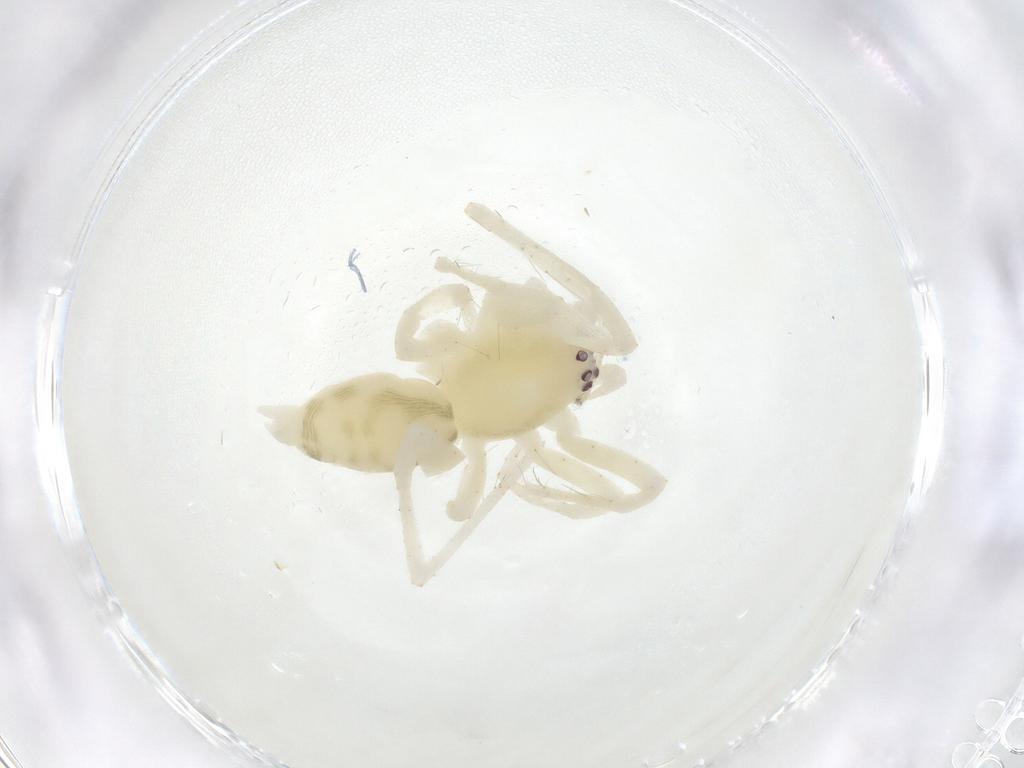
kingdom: Animalia
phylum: Arthropoda
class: Arachnida
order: Araneae
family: Anyphaenidae
